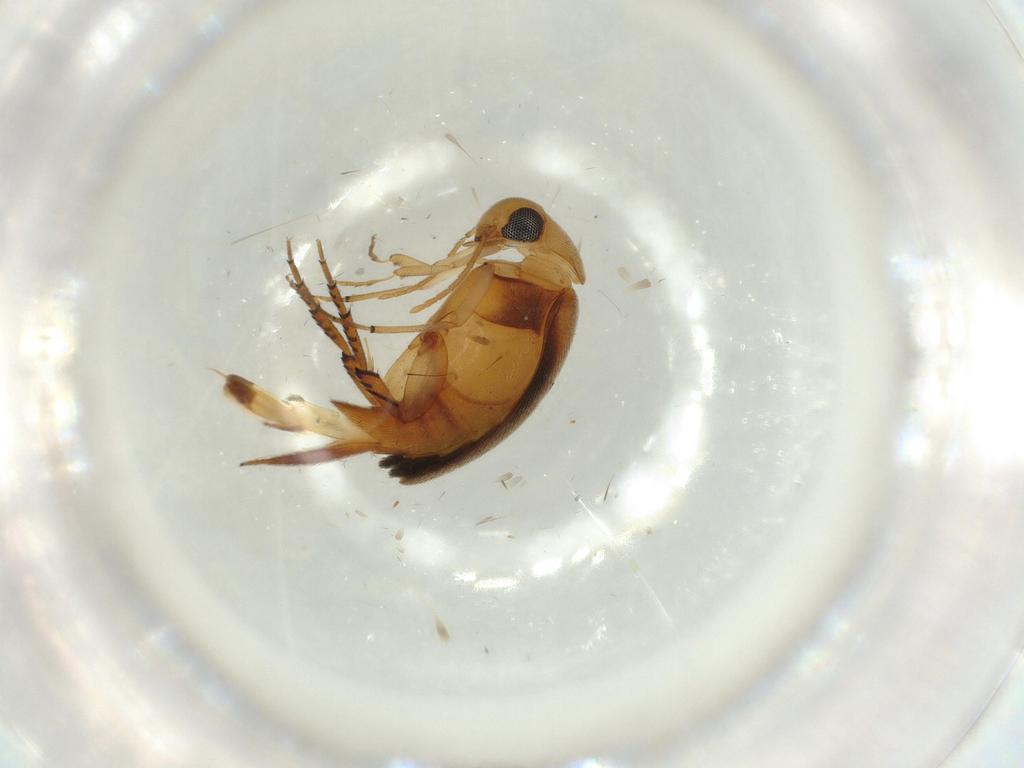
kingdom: Animalia
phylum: Arthropoda
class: Insecta
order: Coleoptera
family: Mordellidae
